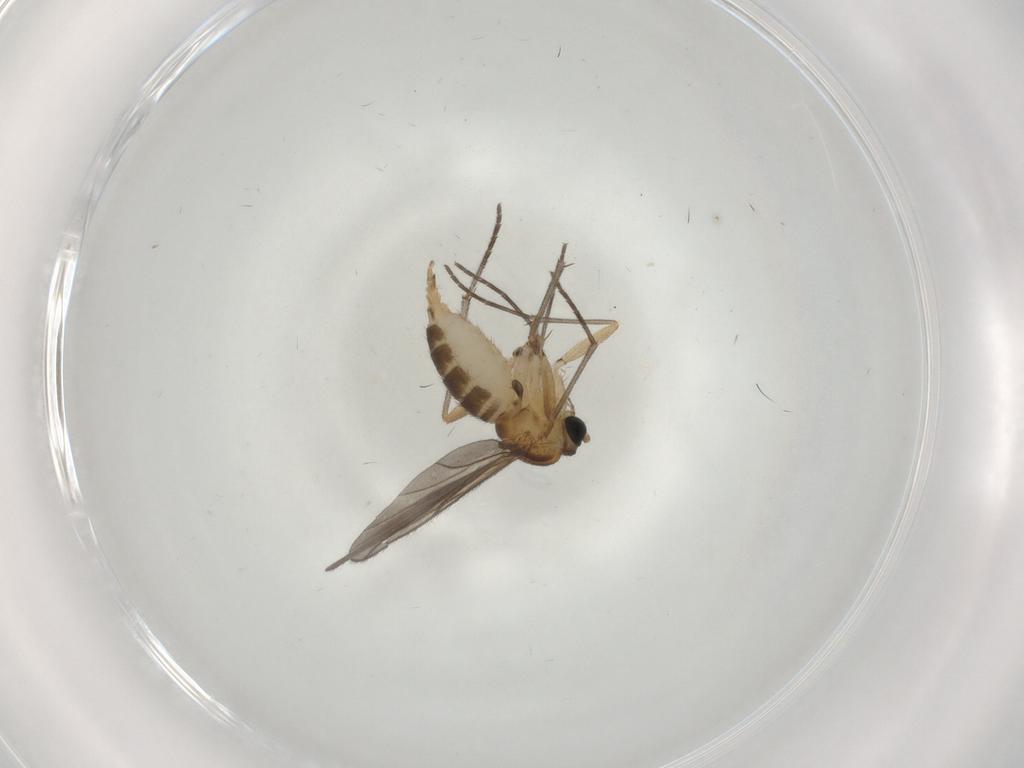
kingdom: Animalia
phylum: Arthropoda
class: Insecta
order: Diptera
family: Sciaridae
